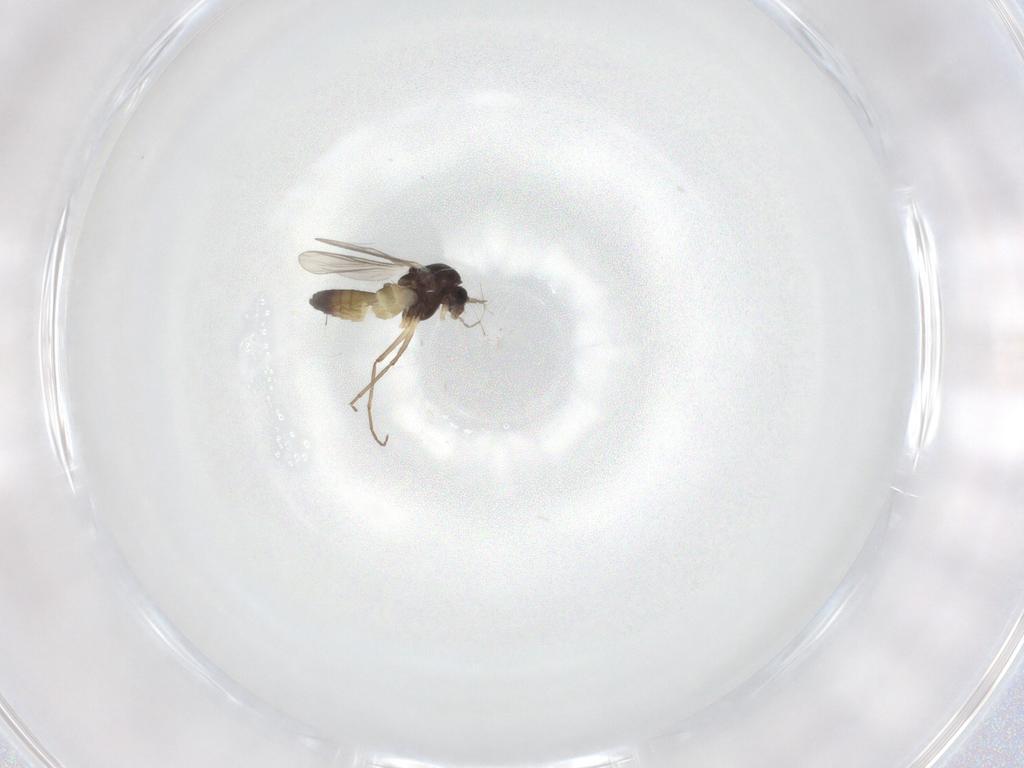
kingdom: Animalia
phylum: Arthropoda
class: Insecta
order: Diptera
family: Chironomidae
